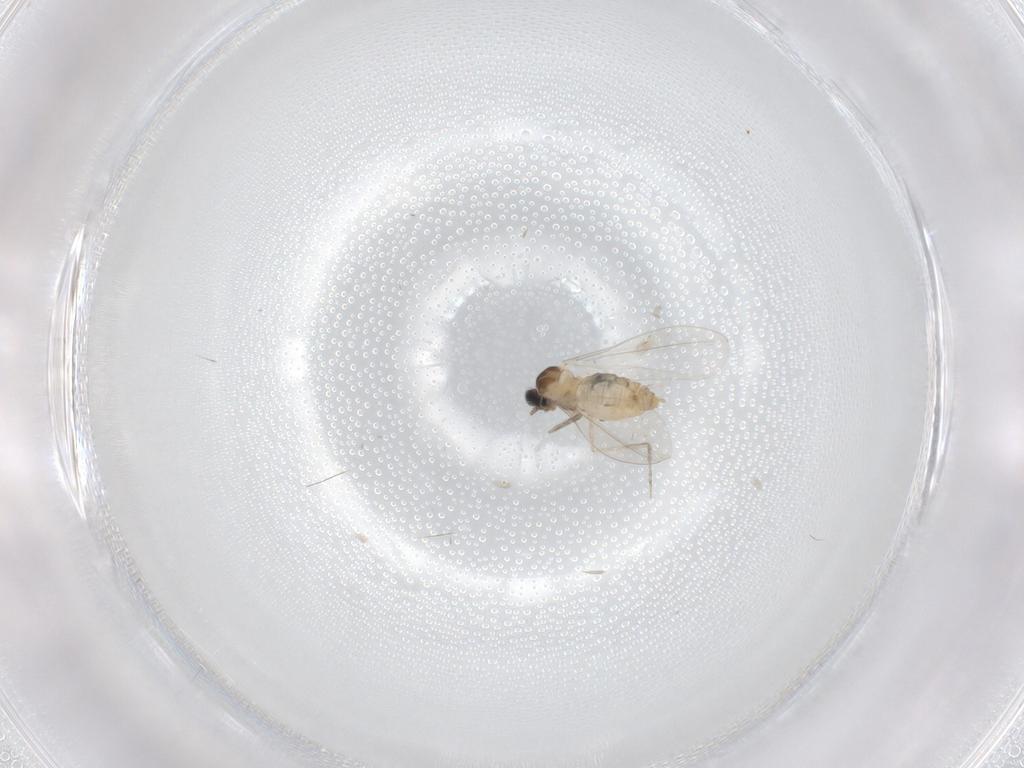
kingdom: Animalia
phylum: Arthropoda
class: Insecta
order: Diptera
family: Cecidomyiidae
